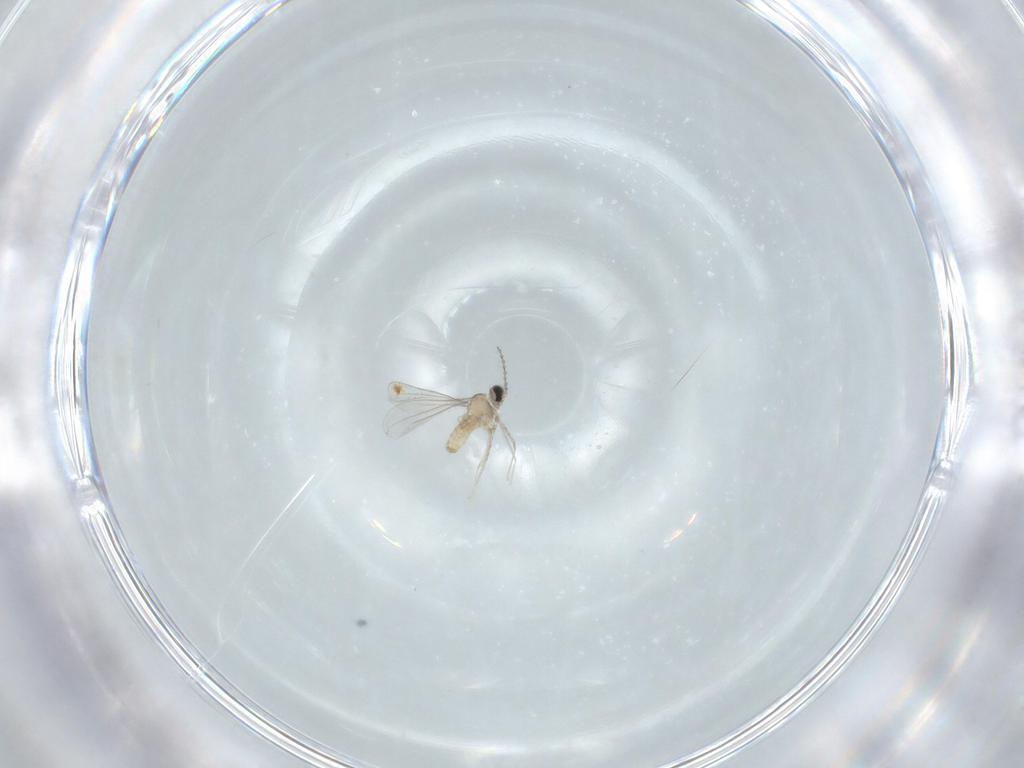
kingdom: Animalia
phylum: Arthropoda
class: Insecta
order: Diptera
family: Cecidomyiidae
